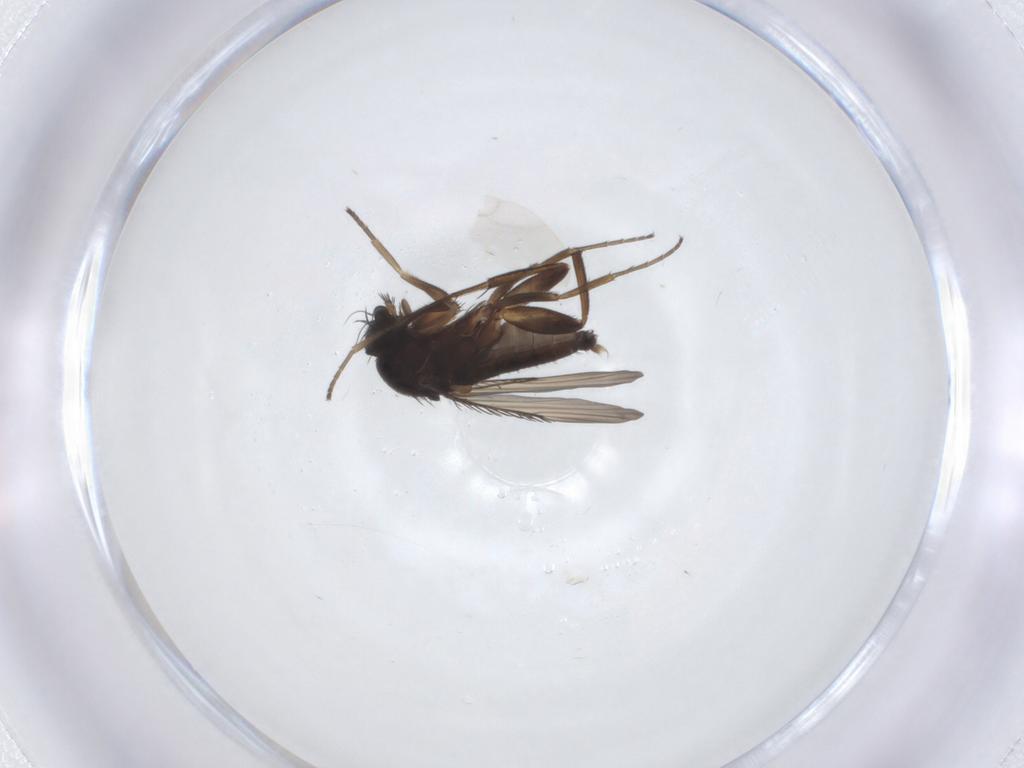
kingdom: Animalia
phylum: Arthropoda
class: Insecta
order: Diptera
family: Phoridae
